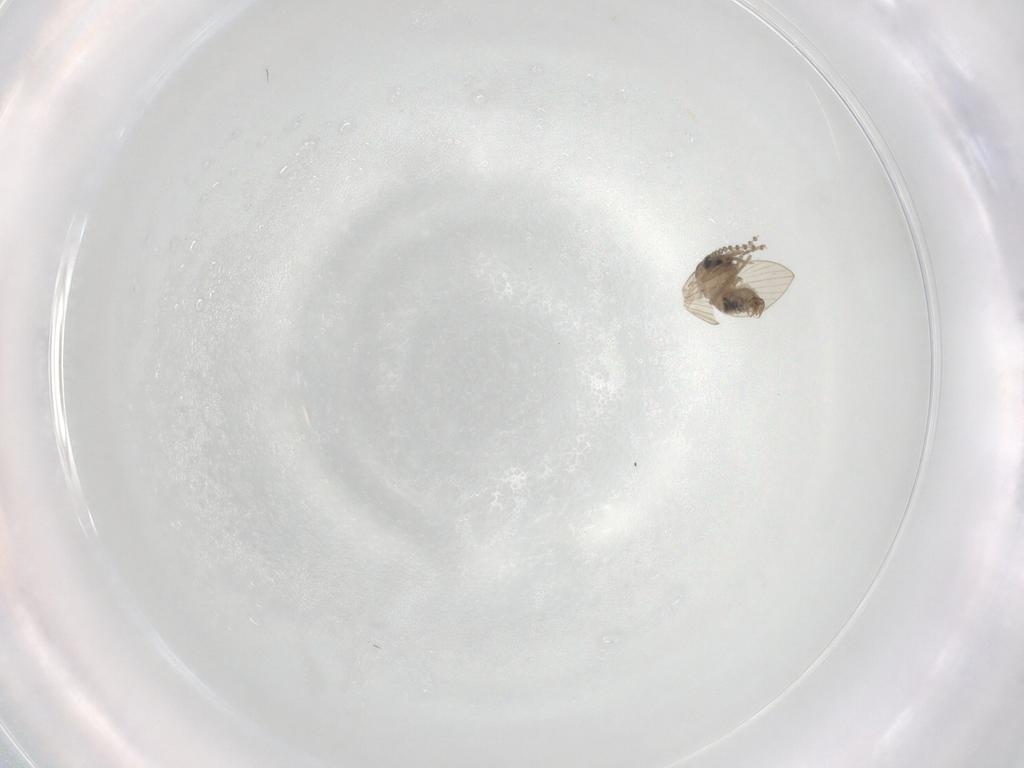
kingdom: Animalia
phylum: Arthropoda
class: Insecta
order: Diptera
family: Psychodidae
